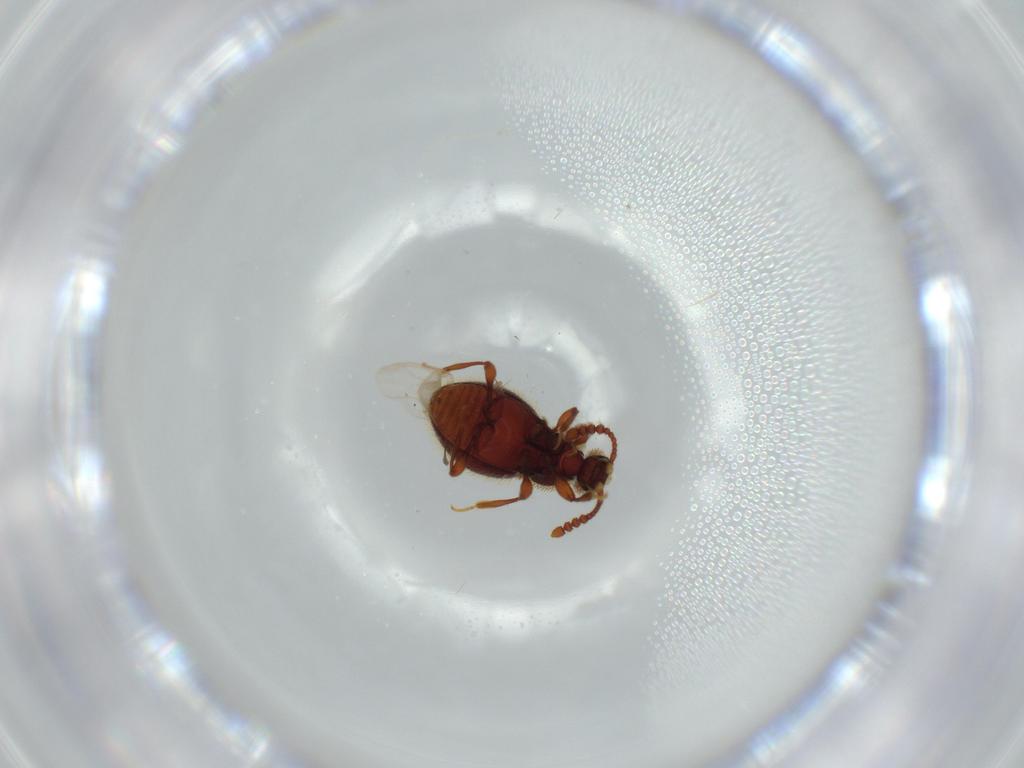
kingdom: Animalia
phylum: Arthropoda
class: Insecta
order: Coleoptera
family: Staphylinidae
